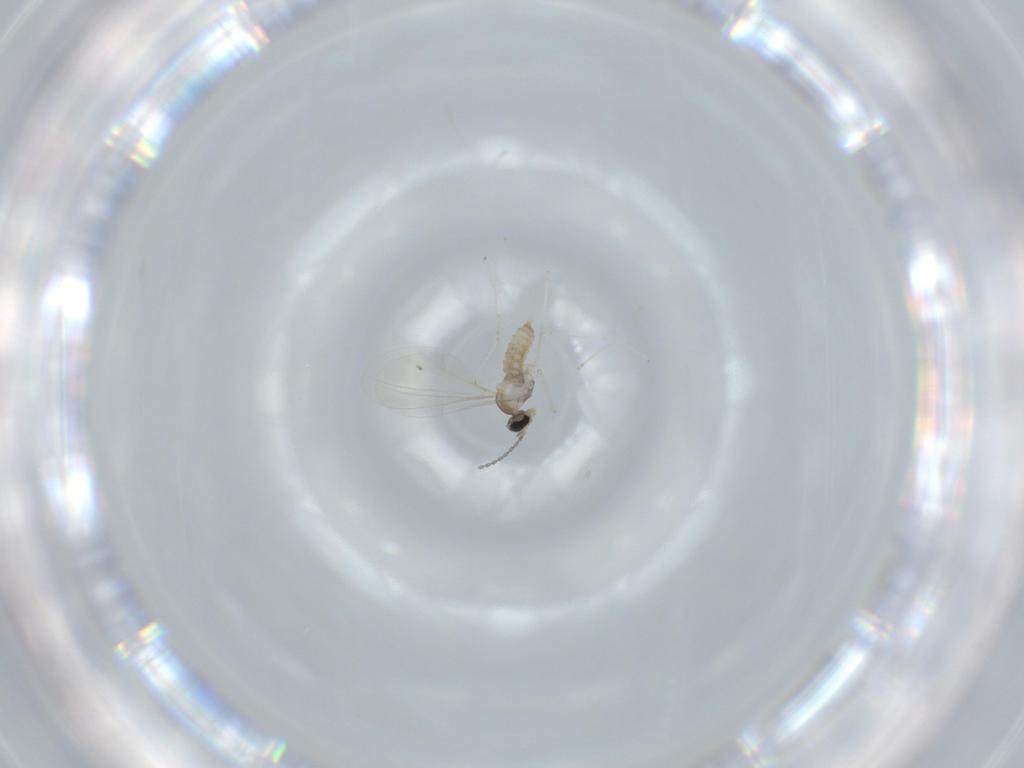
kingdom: Animalia
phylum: Arthropoda
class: Insecta
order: Diptera
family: Cecidomyiidae
